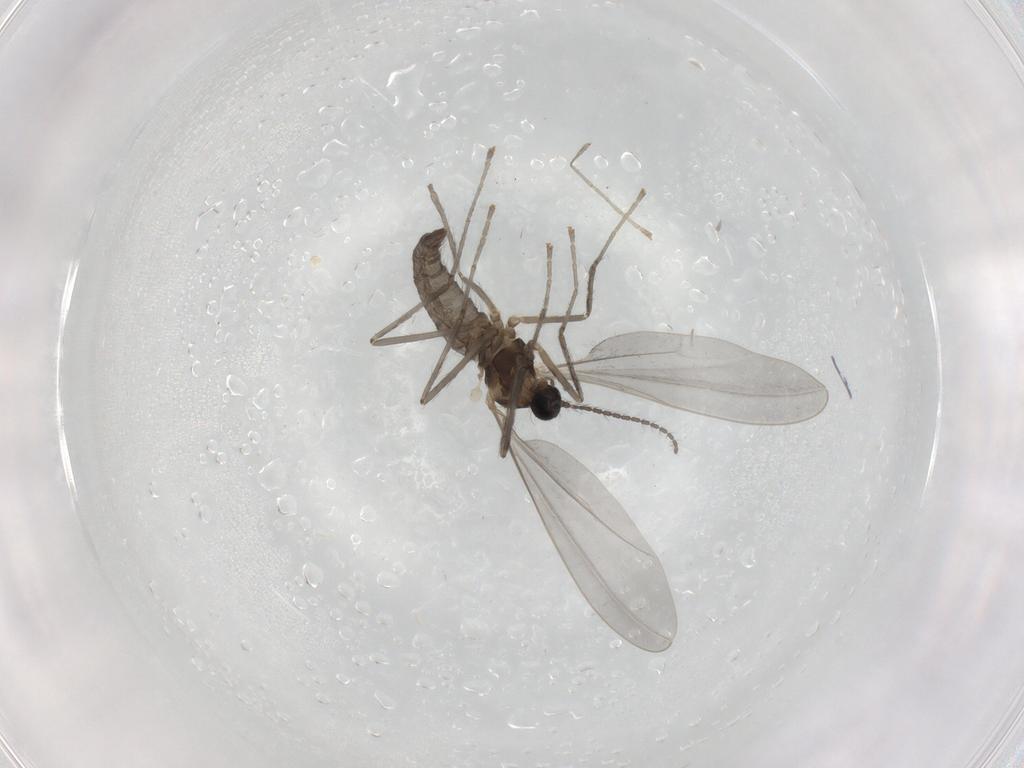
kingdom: Animalia
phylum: Arthropoda
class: Insecta
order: Diptera
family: Cecidomyiidae
